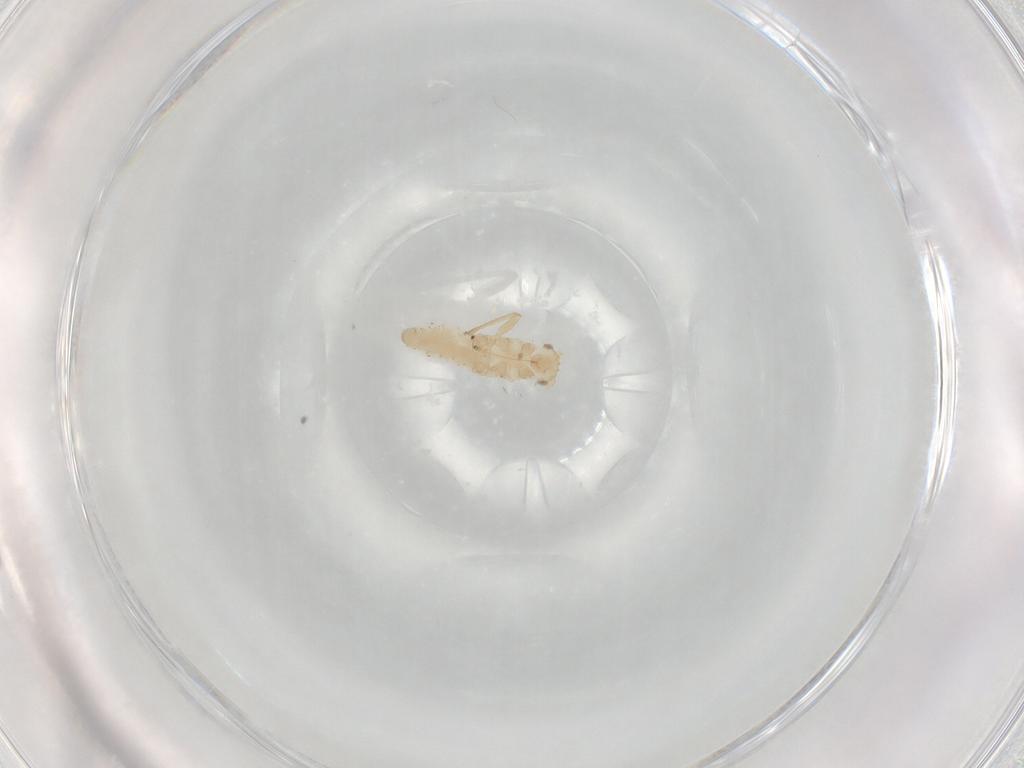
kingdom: Animalia
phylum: Arthropoda
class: Insecta
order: Hemiptera
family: Aphididae
